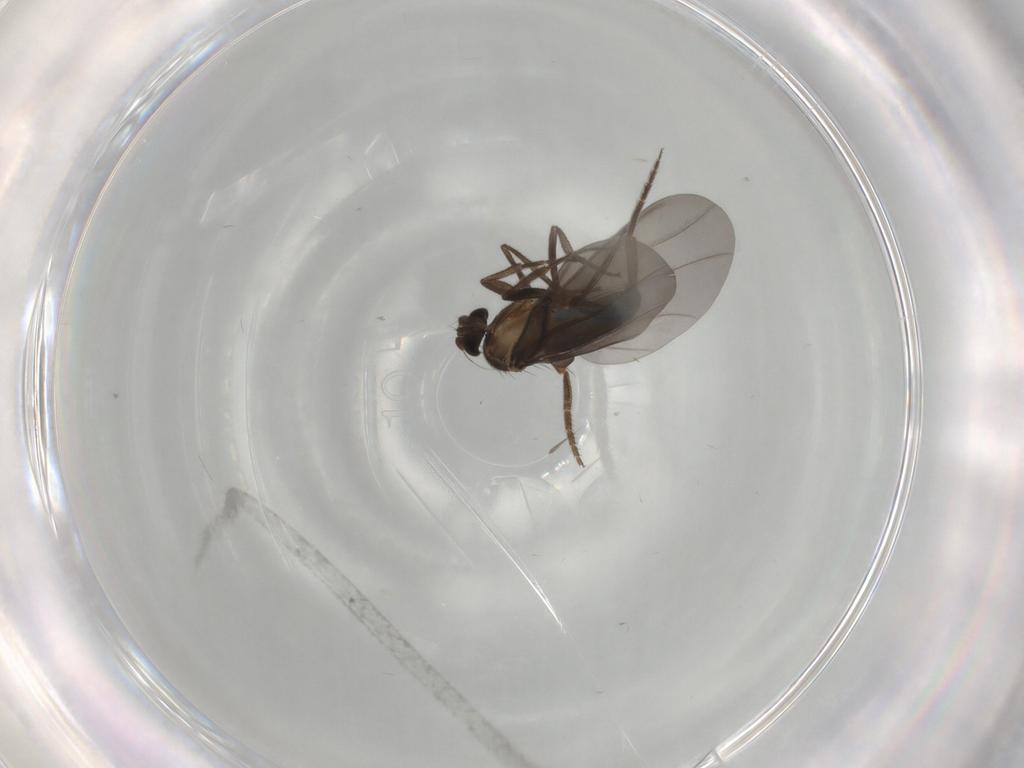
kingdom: Animalia
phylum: Arthropoda
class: Insecta
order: Diptera
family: Phoridae
